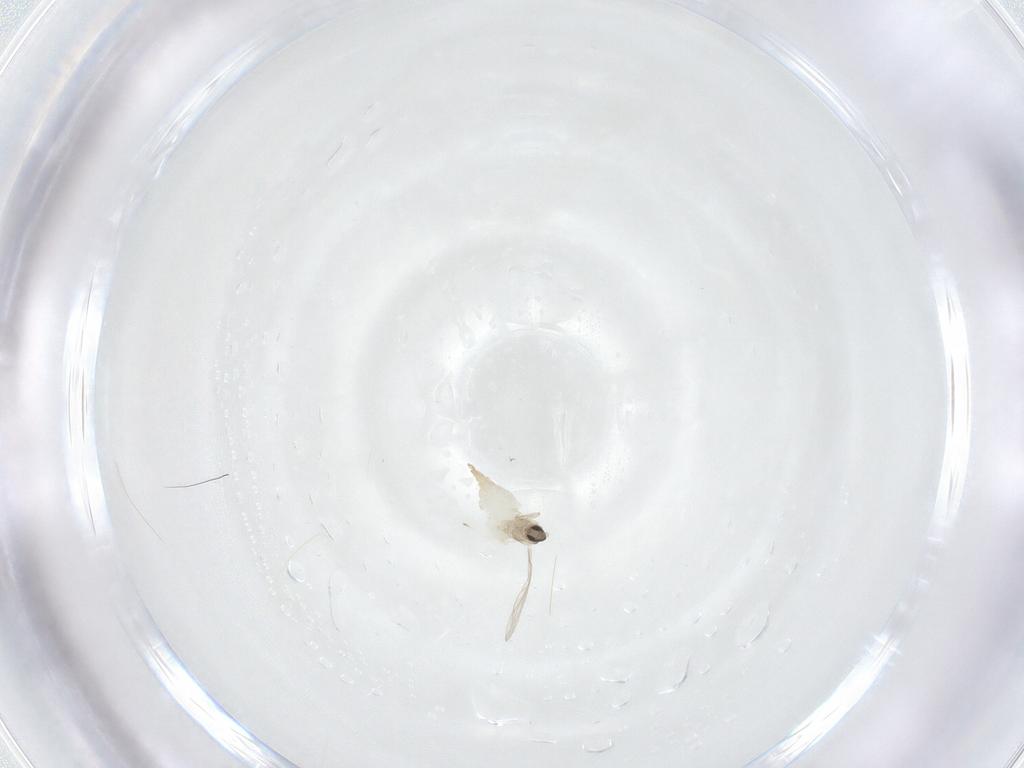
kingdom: Animalia
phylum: Arthropoda
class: Insecta
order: Diptera
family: Cecidomyiidae
